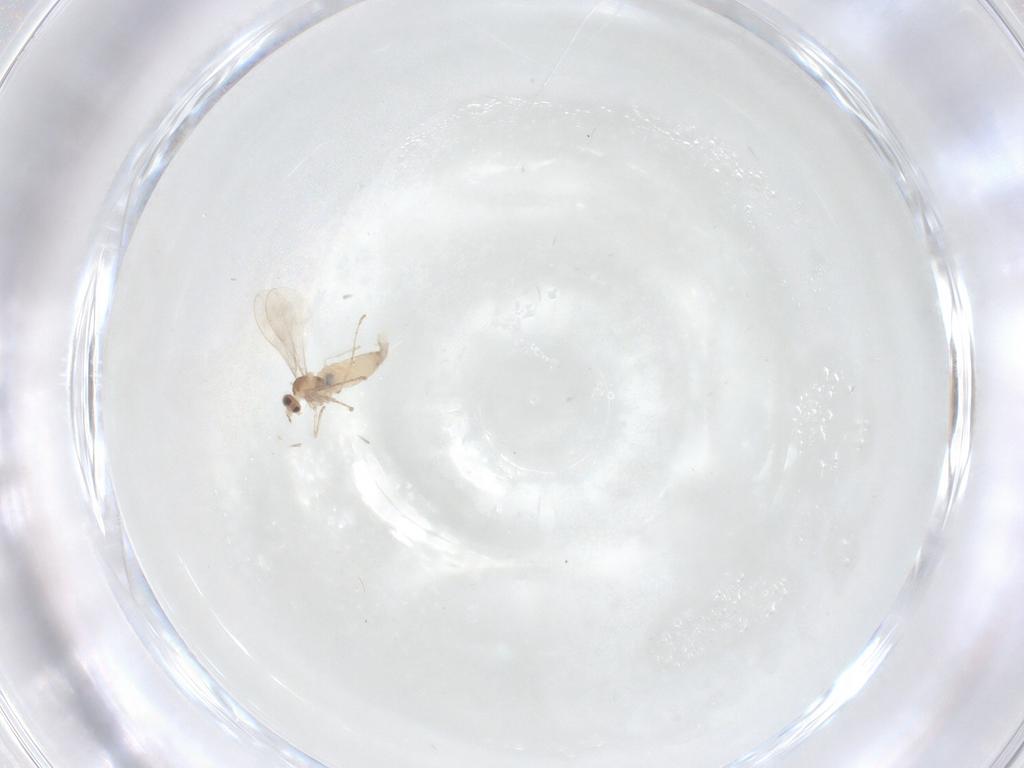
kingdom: Animalia
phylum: Arthropoda
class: Insecta
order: Diptera
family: Cecidomyiidae
